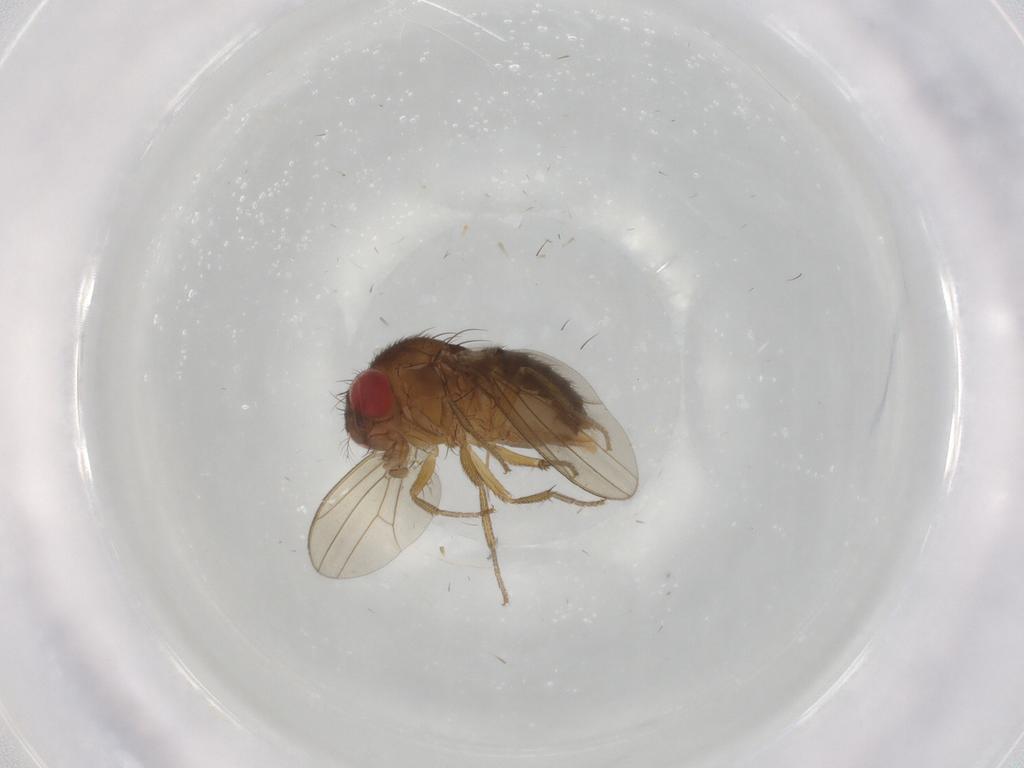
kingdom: Animalia
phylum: Arthropoda
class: Insecta
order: Diptera
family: Drosophilidae
